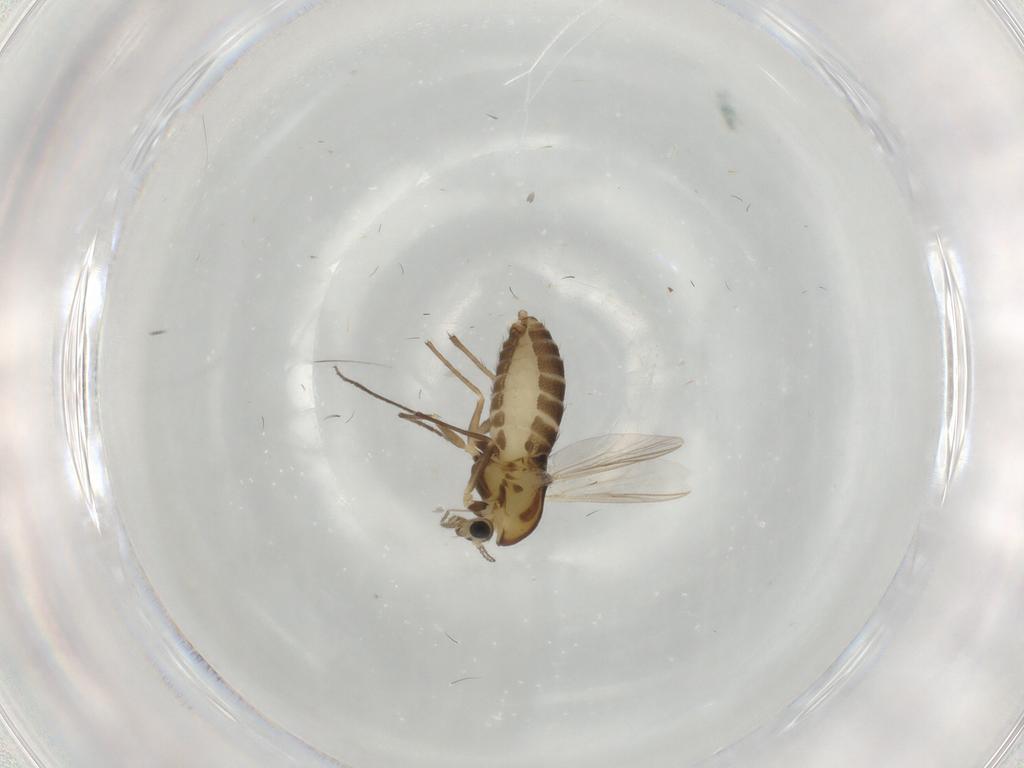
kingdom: Animalia
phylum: Arthropoda
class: Insecta
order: Diptera
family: Chironomidae
